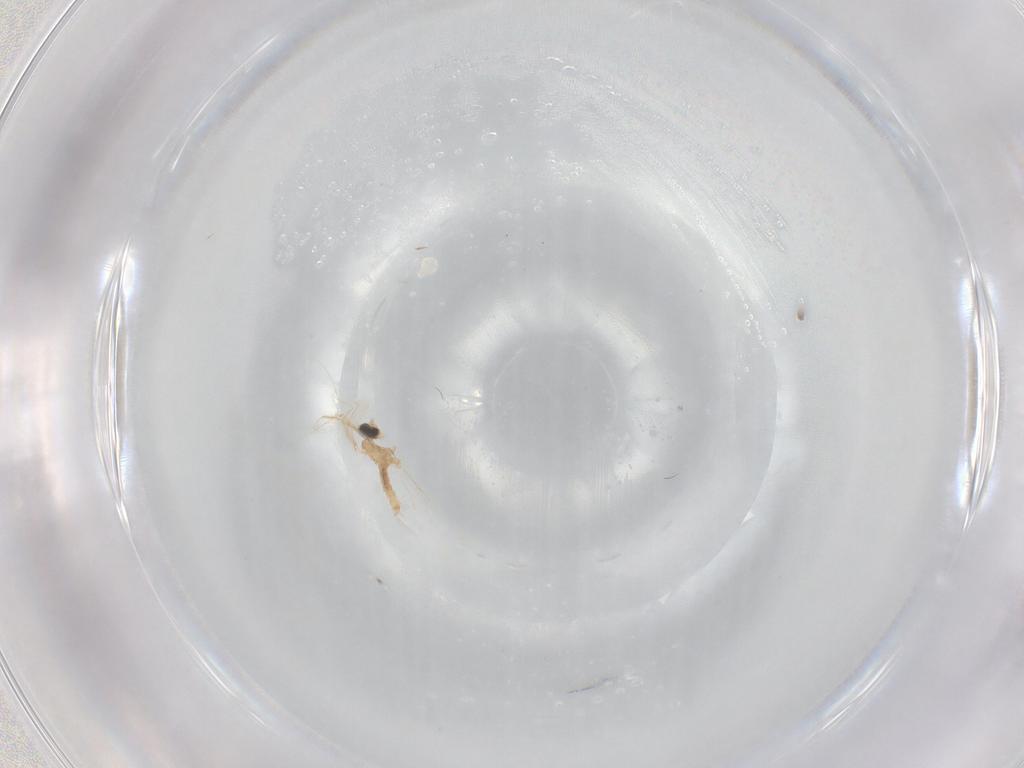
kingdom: Animalia
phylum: Arthropoda
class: Insecta
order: Diptera
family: Cecidomyiidae
